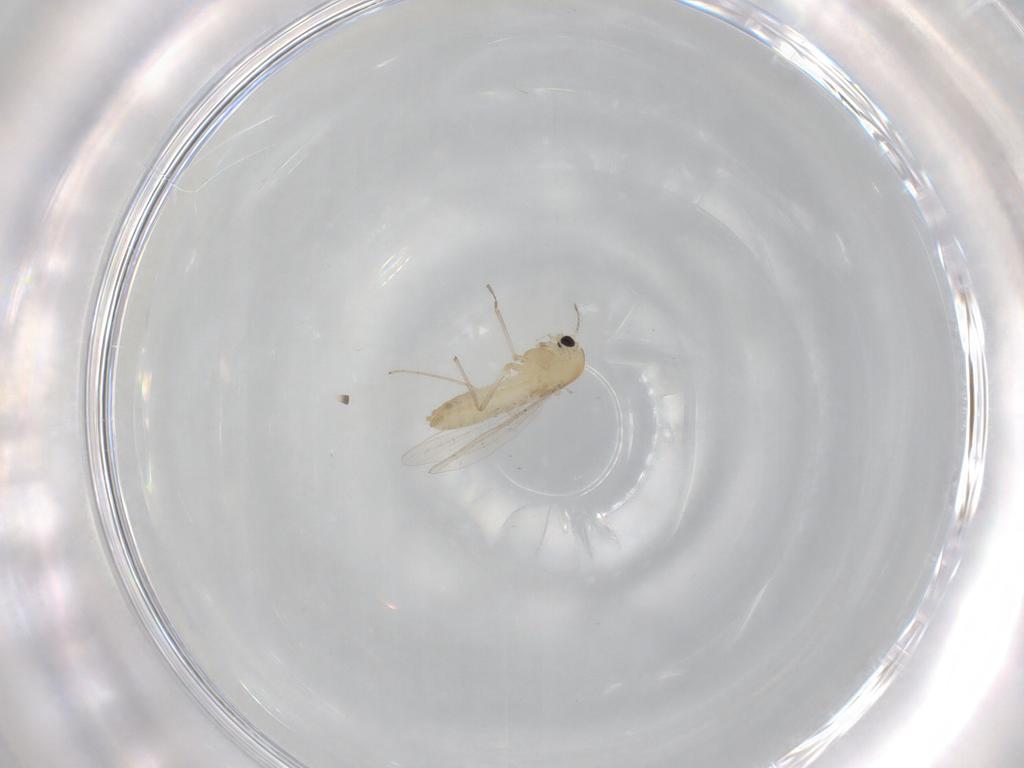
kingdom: Animalia
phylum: Arthropoda
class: Insecta
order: Diptera
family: Chironomidae
